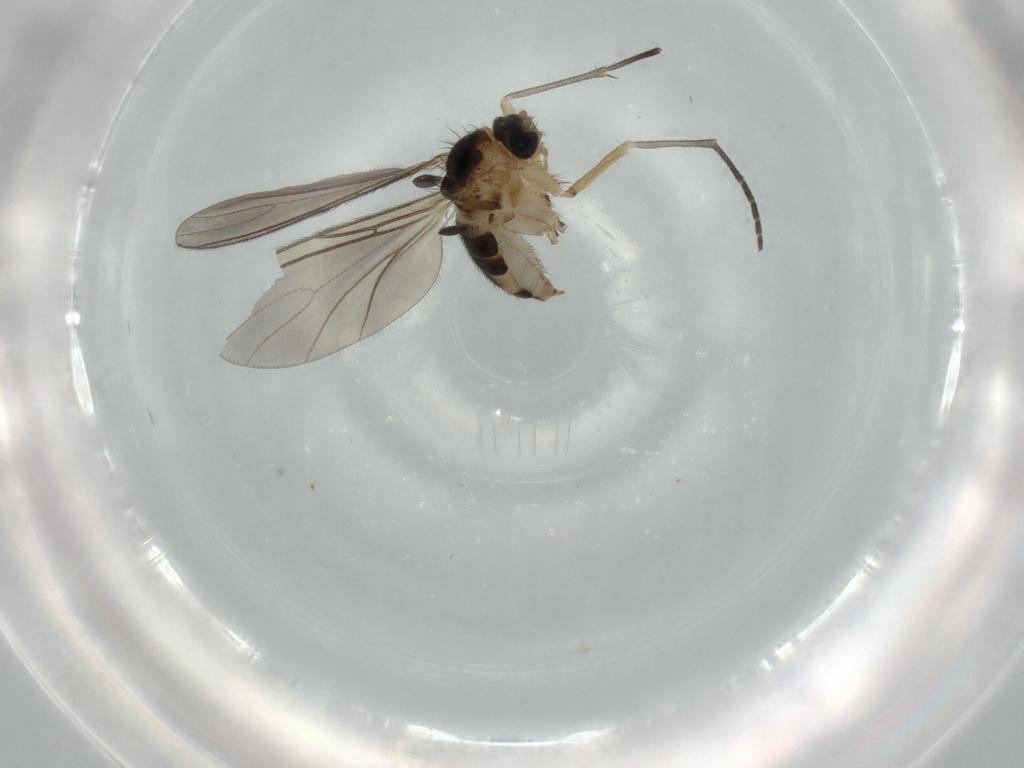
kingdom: Animalia
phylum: Arthropoda
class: Insecta
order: Diptera
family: Sciaridae
